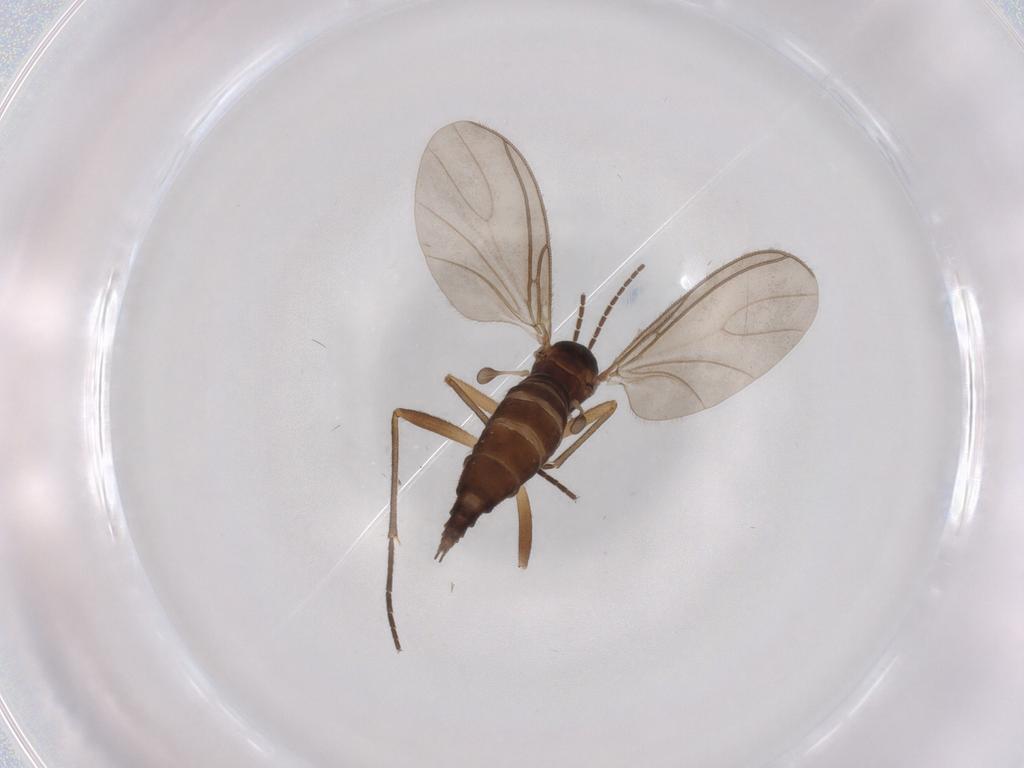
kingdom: Animalia
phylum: Arthropoda
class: Insecta
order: Diptera
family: Sciaridae
